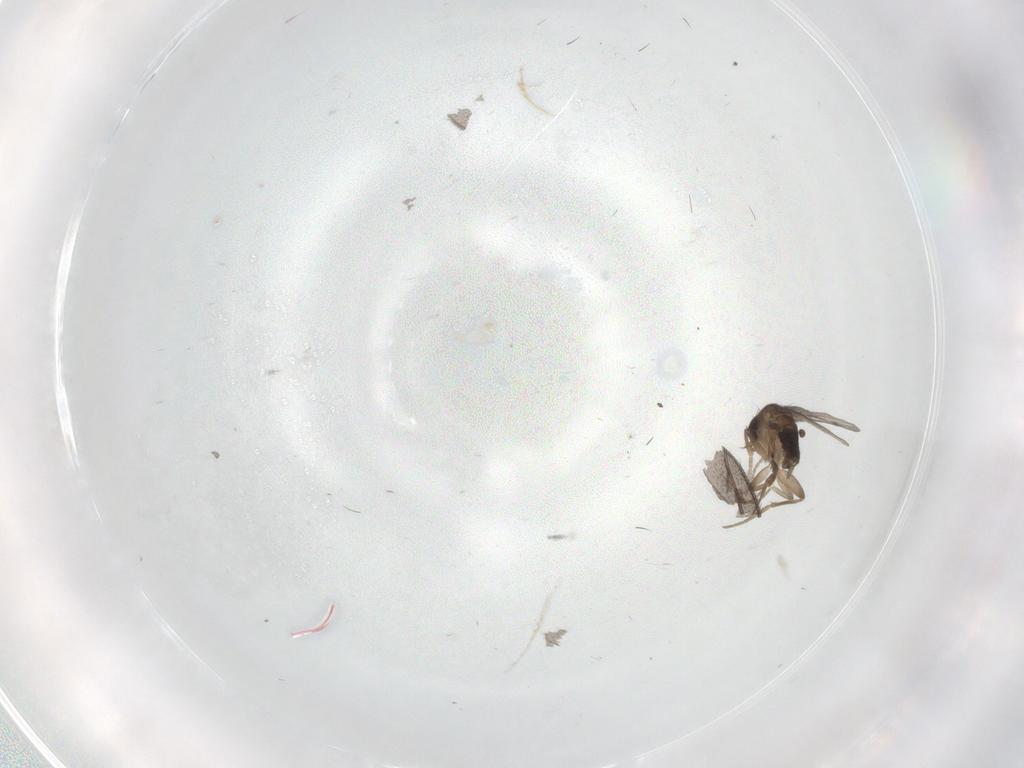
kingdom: Animalia
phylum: Arthropoda
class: Insecta
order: Diptera
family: Phoridae
